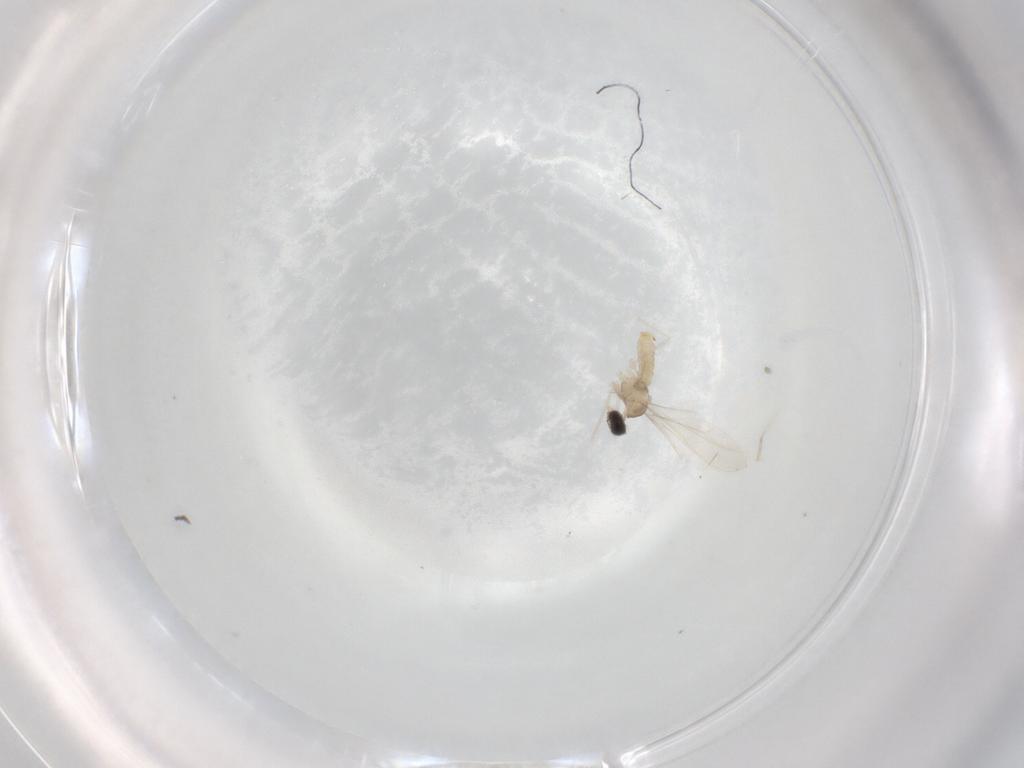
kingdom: Animalia
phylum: Arthropoda
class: Insecta
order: Diptera
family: Cecidomyiidae
